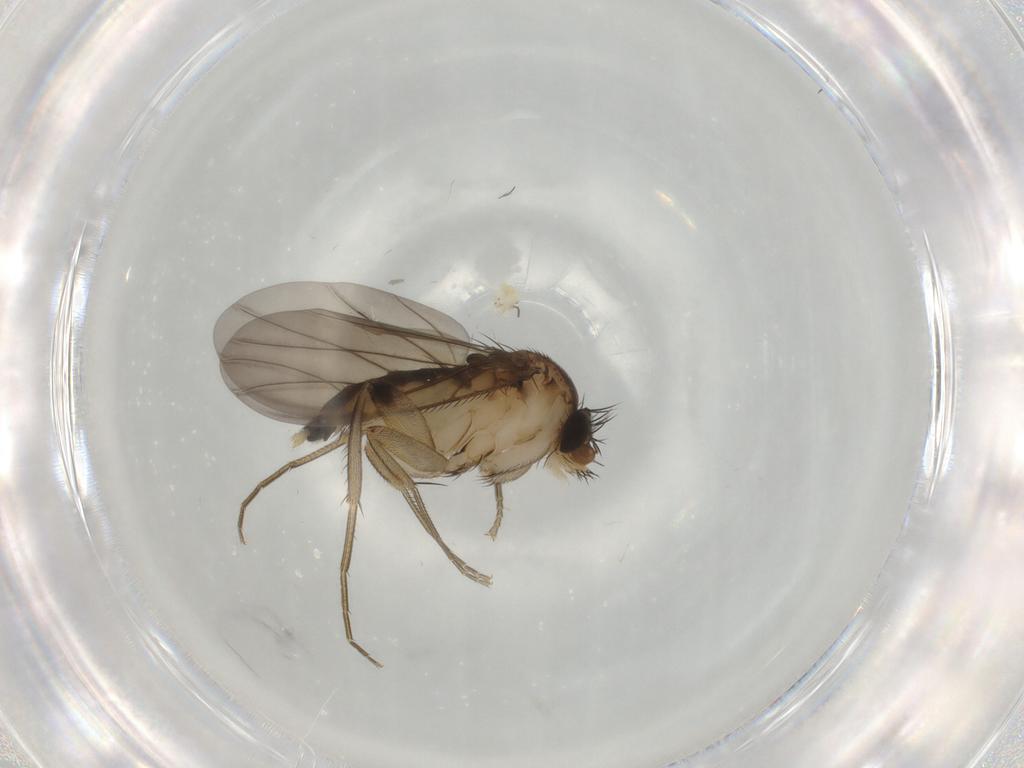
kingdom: Animalia
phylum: Arthropoda
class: Insecta
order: Diptera
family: Phoridae
